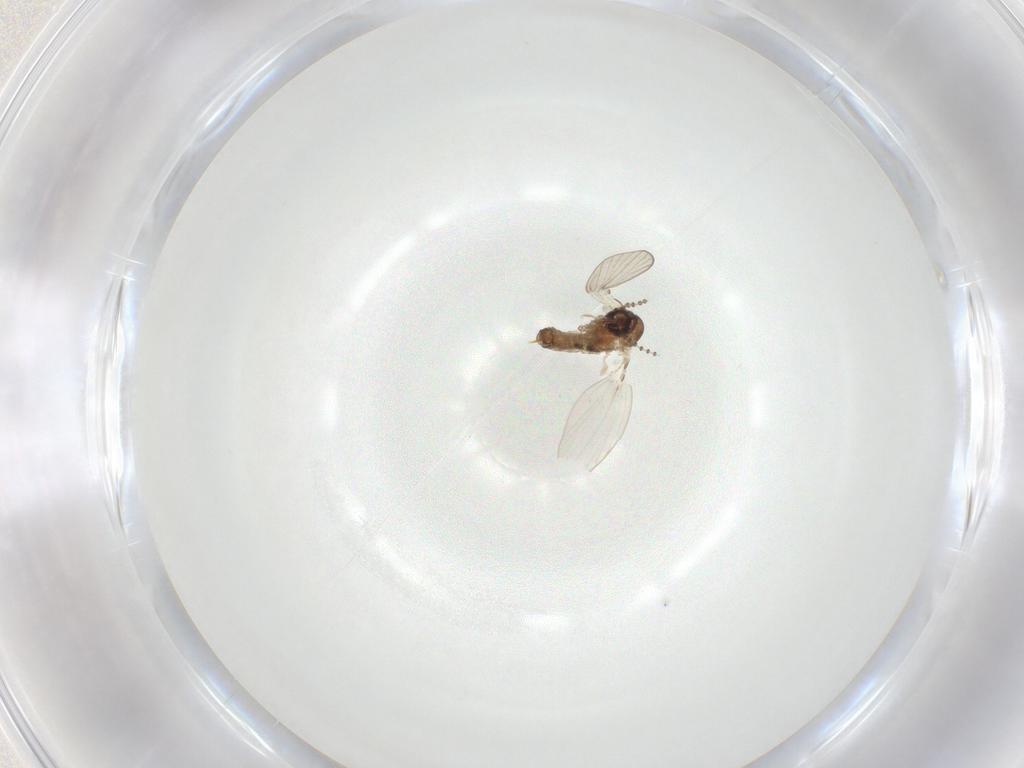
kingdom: Animalia
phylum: Arthropoda
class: Insecta
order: Diptera
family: Psychodidae
